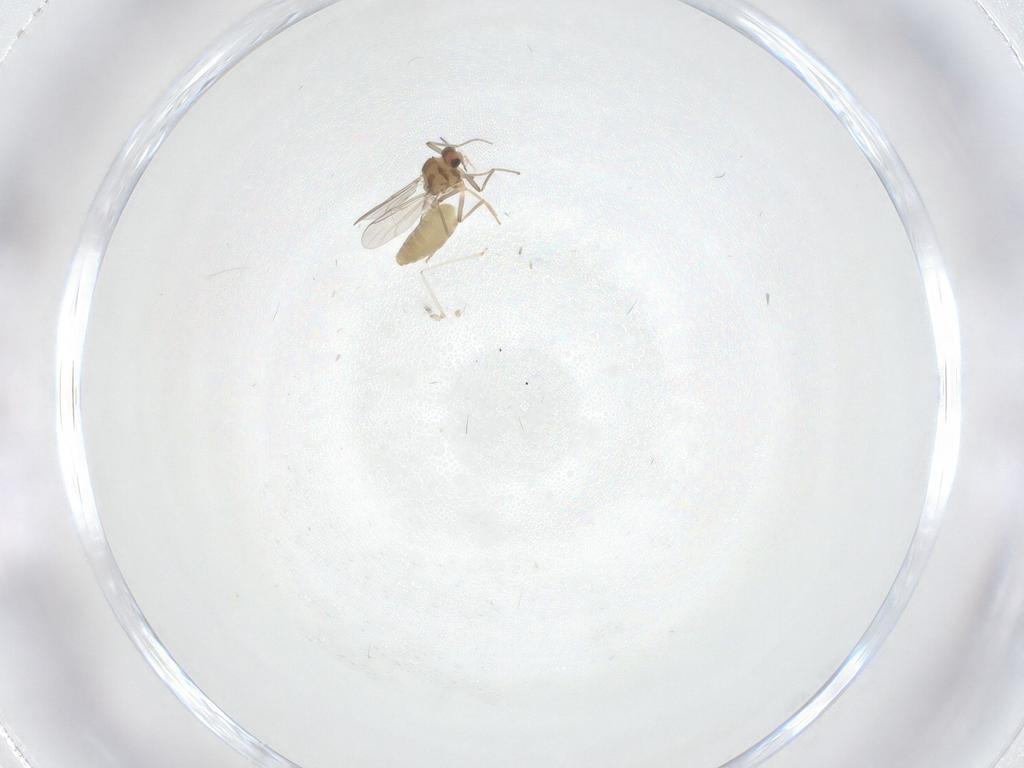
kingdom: Animalia
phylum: Arthropoda
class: Insecta
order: Diptera
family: Chironomidae
